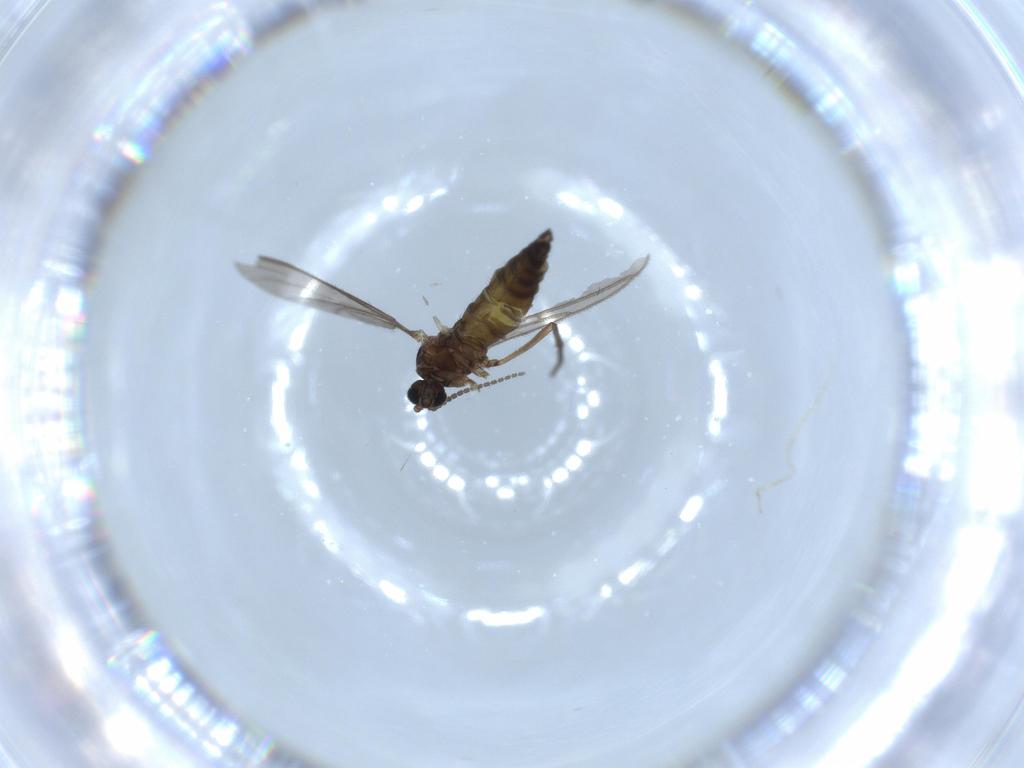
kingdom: Animalia
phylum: Arthropoda
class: Insecta
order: Diptera
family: Sciaridae
